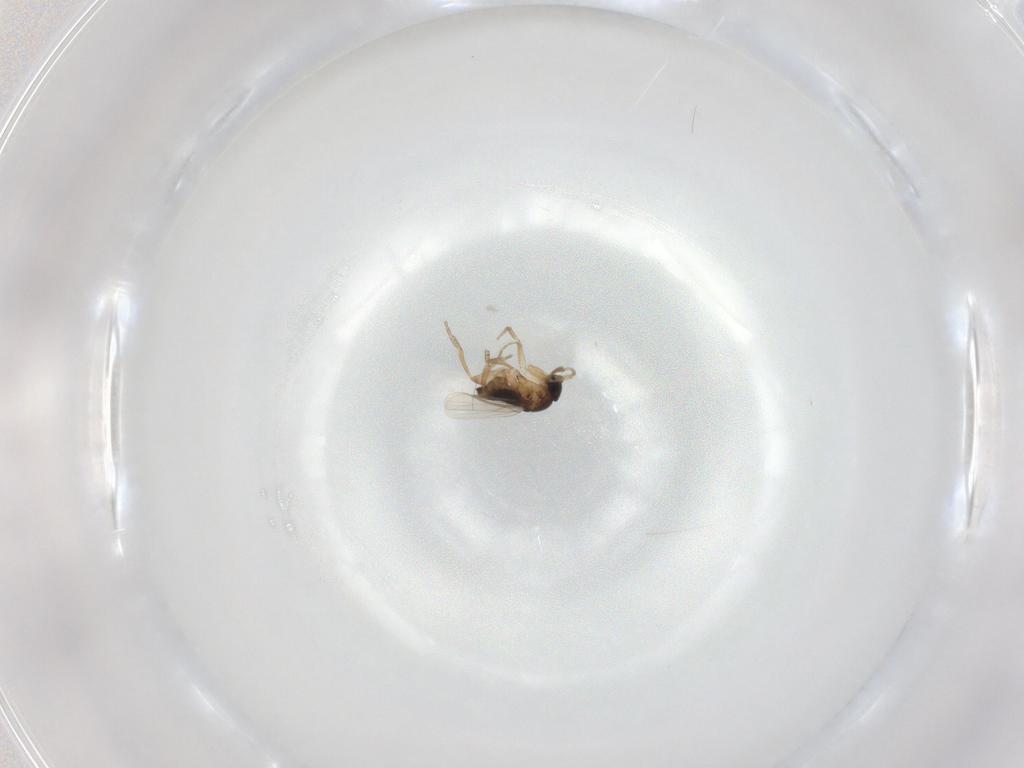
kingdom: Animalia
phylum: Arthropoda
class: Insecta
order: Diptera
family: Phoridae
